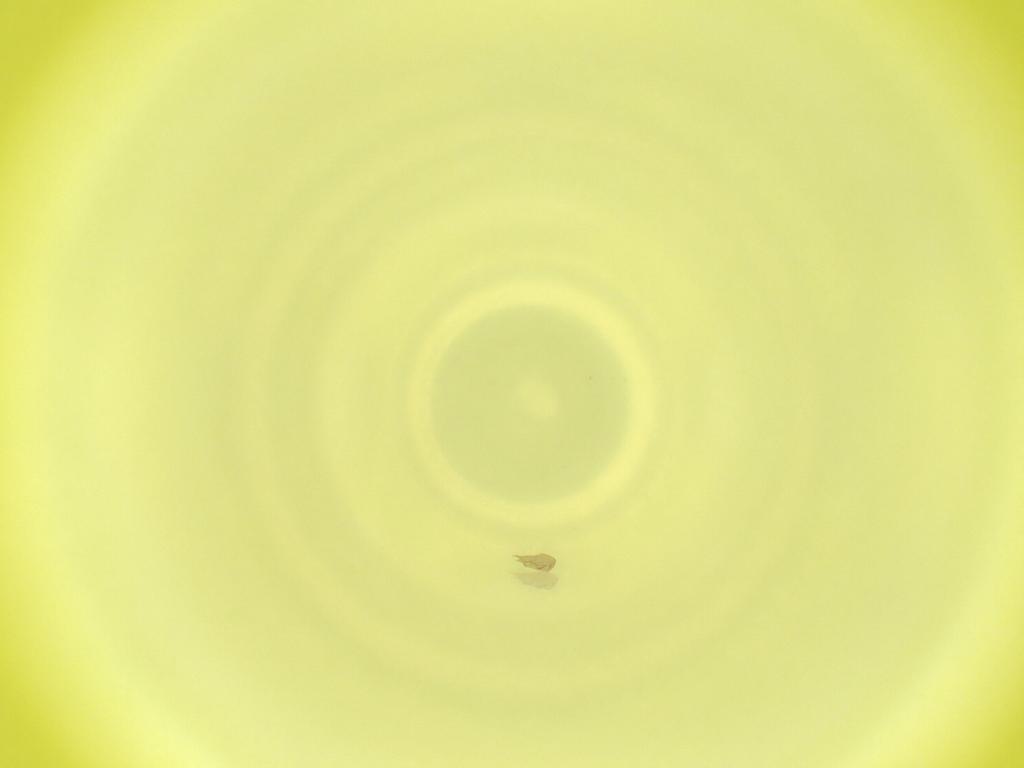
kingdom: Animalia
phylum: Arthropoda
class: Insecta
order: Diptera
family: Cecidomyiidae
